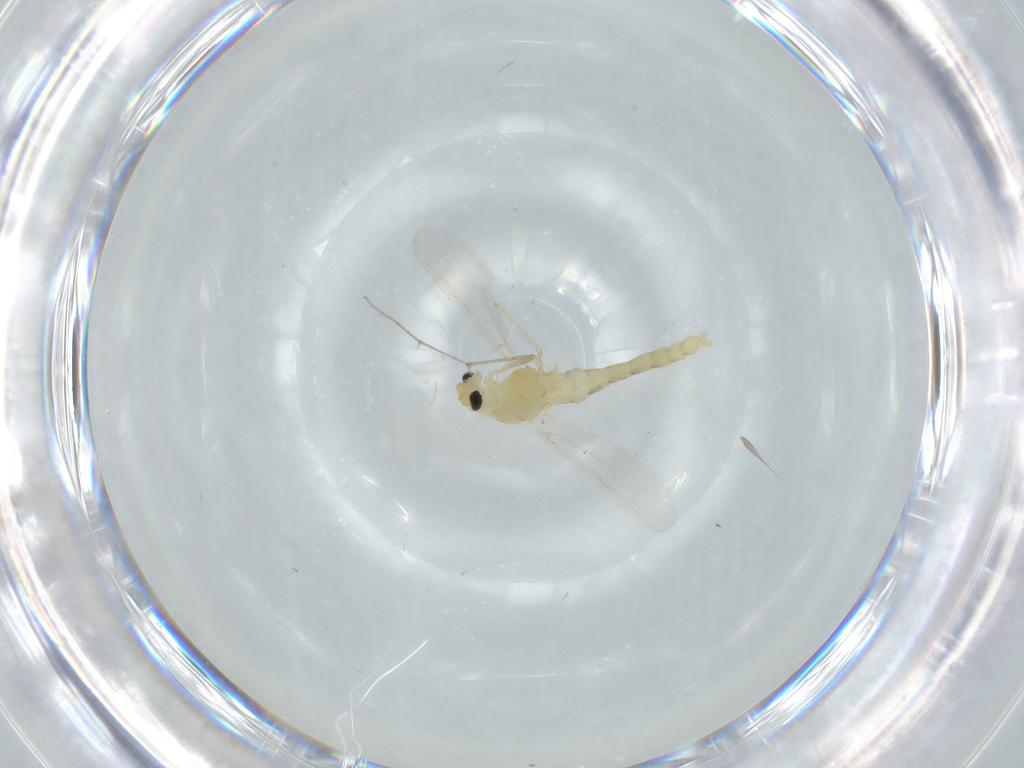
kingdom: Animalia
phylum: Arthropoda
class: Insecta
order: Diptera
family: Chironomidae
